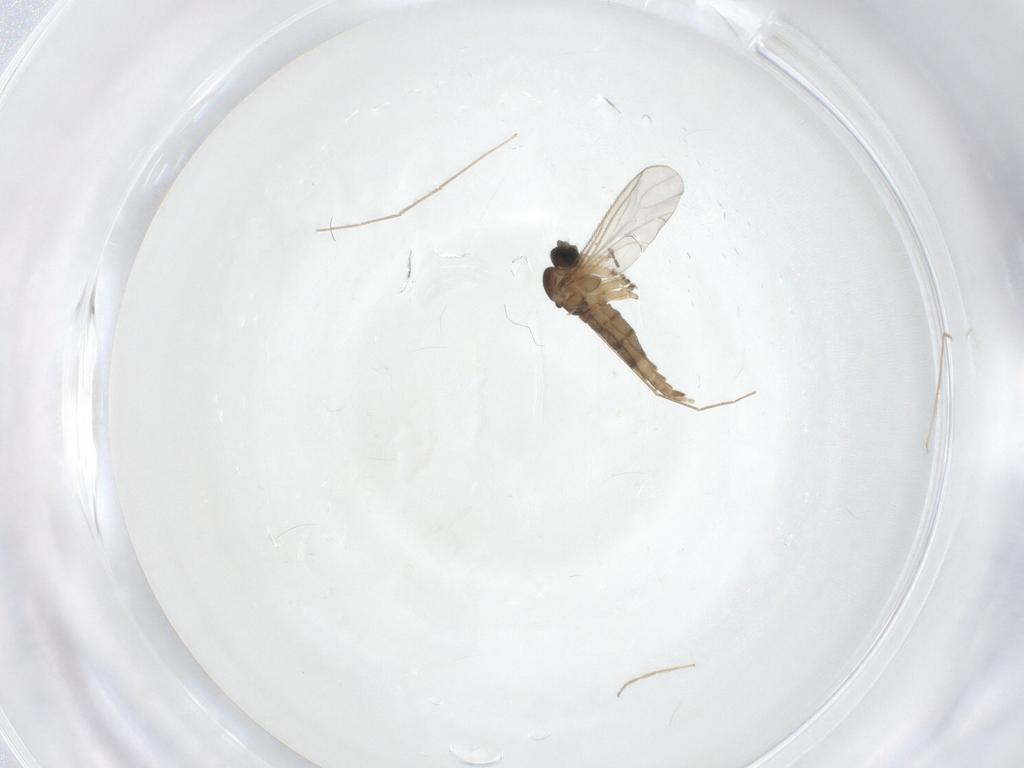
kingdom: Animalia
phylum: Arthropoda
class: Insecta
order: Diptera
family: Sciaridae
